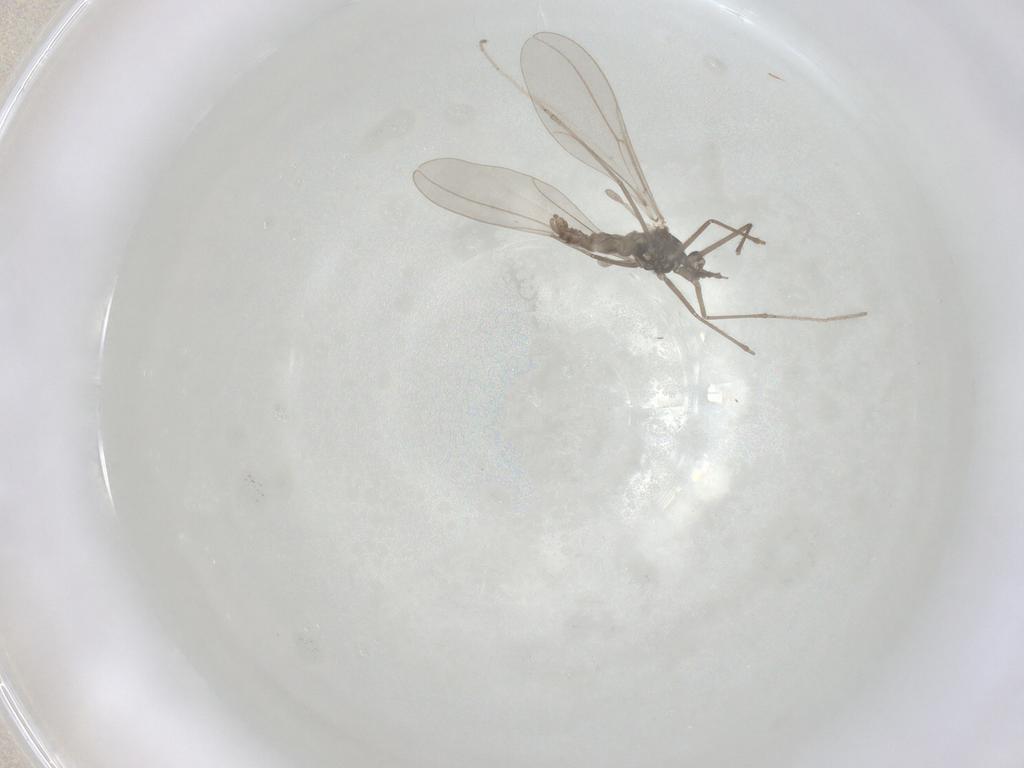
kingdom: Animalia
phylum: Arthropoda
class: Insecta
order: Diptera
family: Cecidomyiidae
